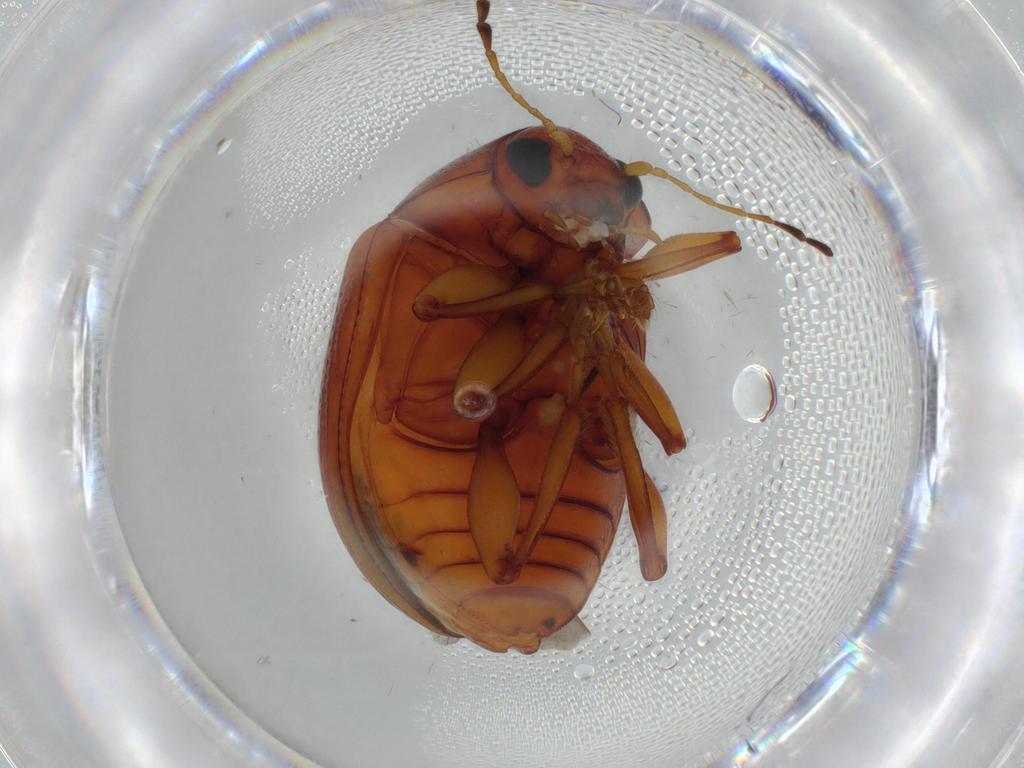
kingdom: Animalia
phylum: Arthropoda
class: Insecta
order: Coleoptera
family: Chrysomelidae
